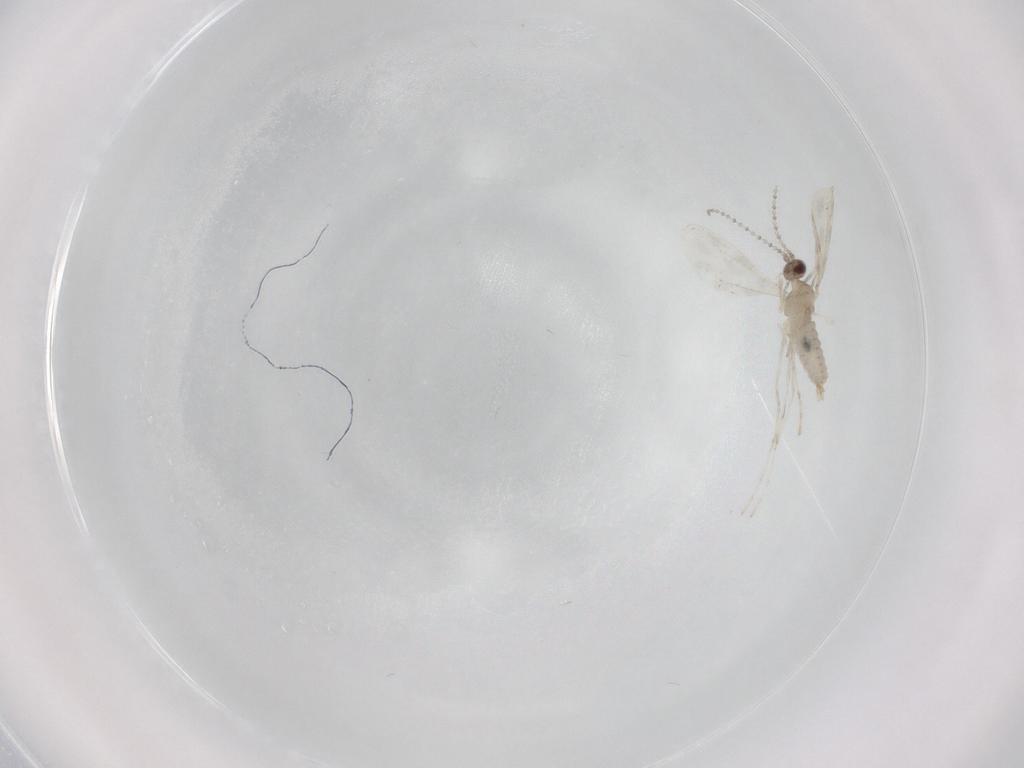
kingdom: Animalia
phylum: Arthropoda
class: Insecta
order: Diptera
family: Cecidomyiidae
